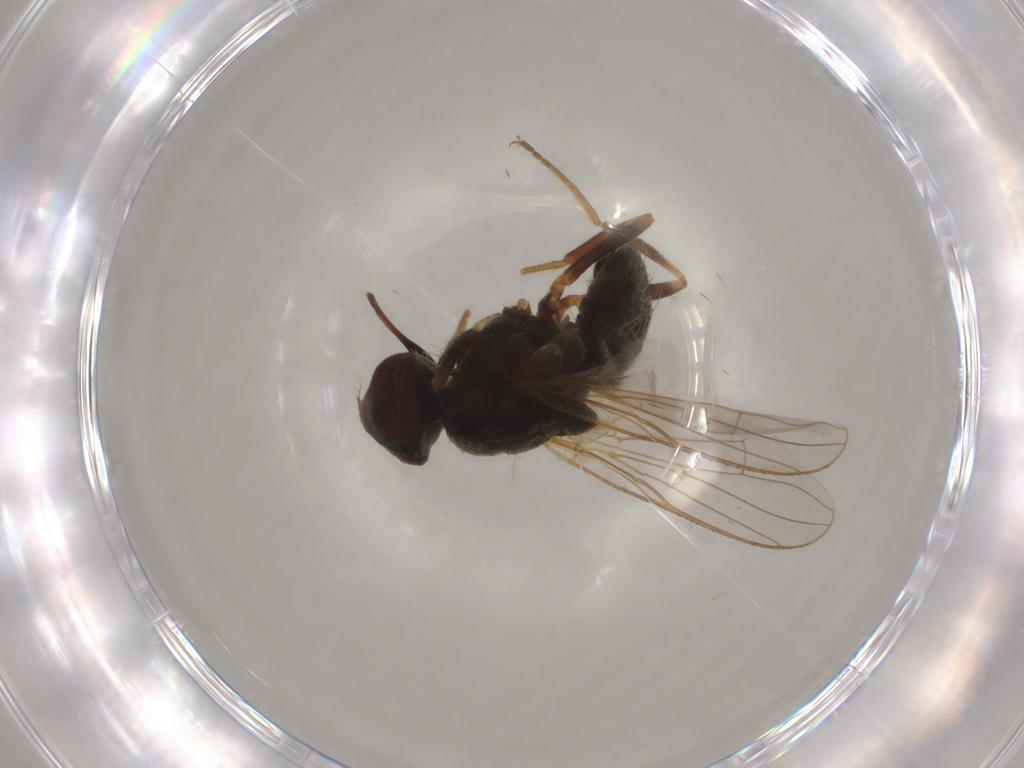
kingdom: Animalia
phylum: Arthropoda
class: Insecta
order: Diptera
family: Muscidae
